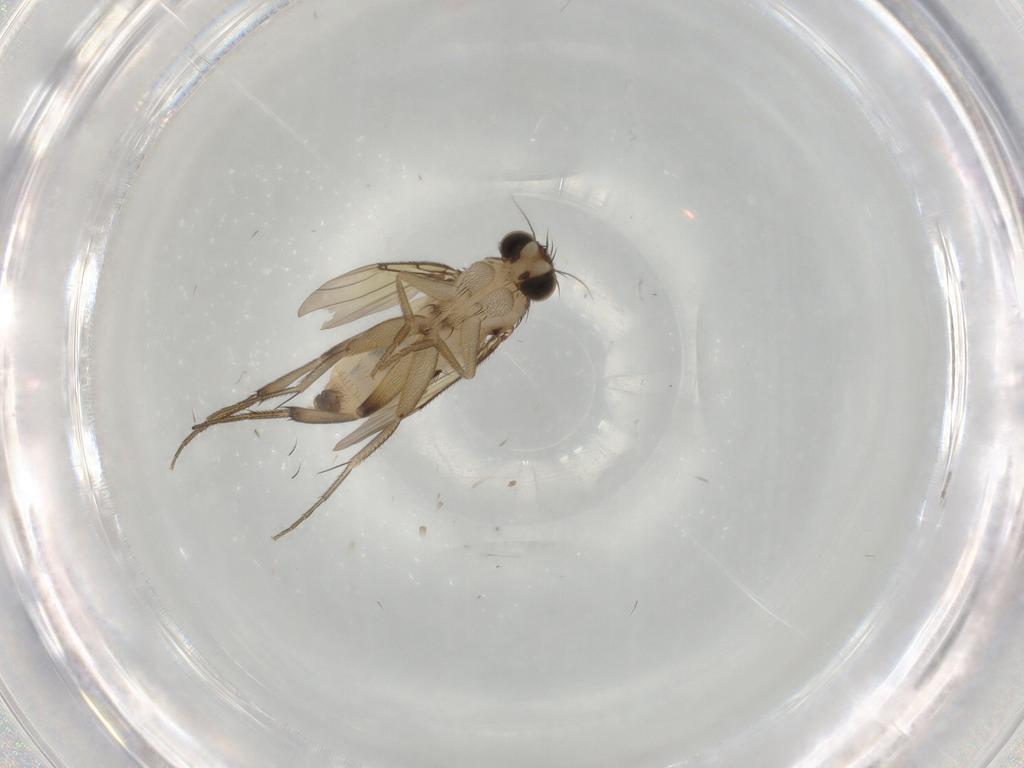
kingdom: Animalia
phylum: Arthropoda
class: Insecta
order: Diptera
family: Phoridae
